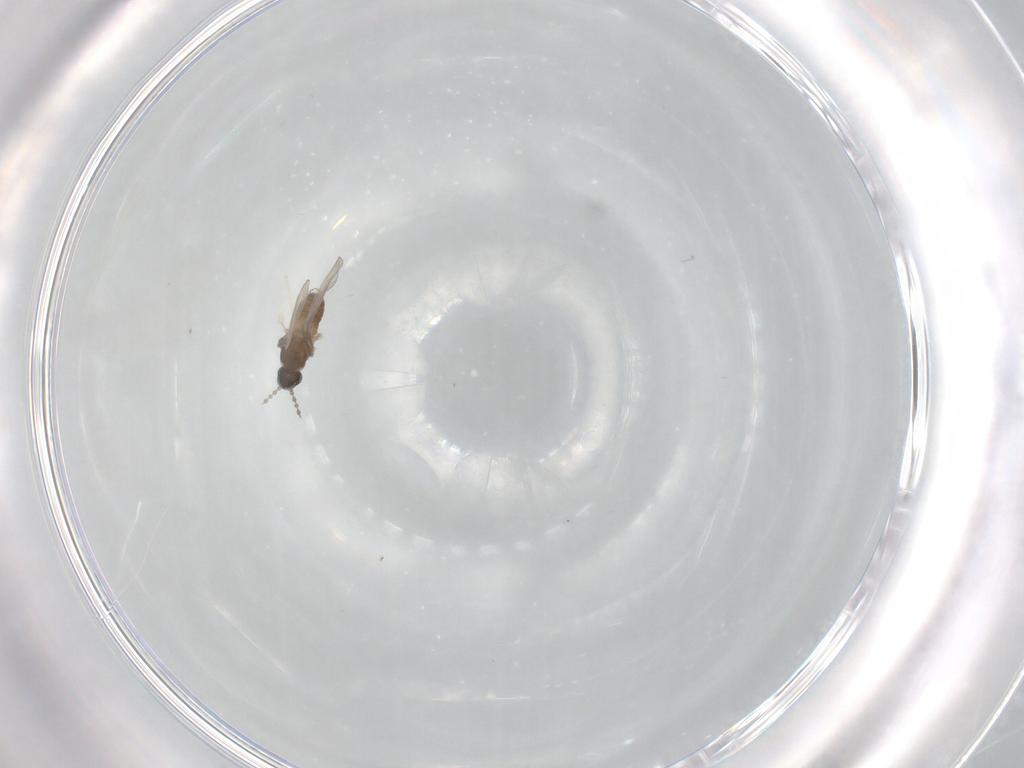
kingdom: Animalia
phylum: Arthropoda
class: Insecta
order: Diptera
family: Cecidomyiidae
